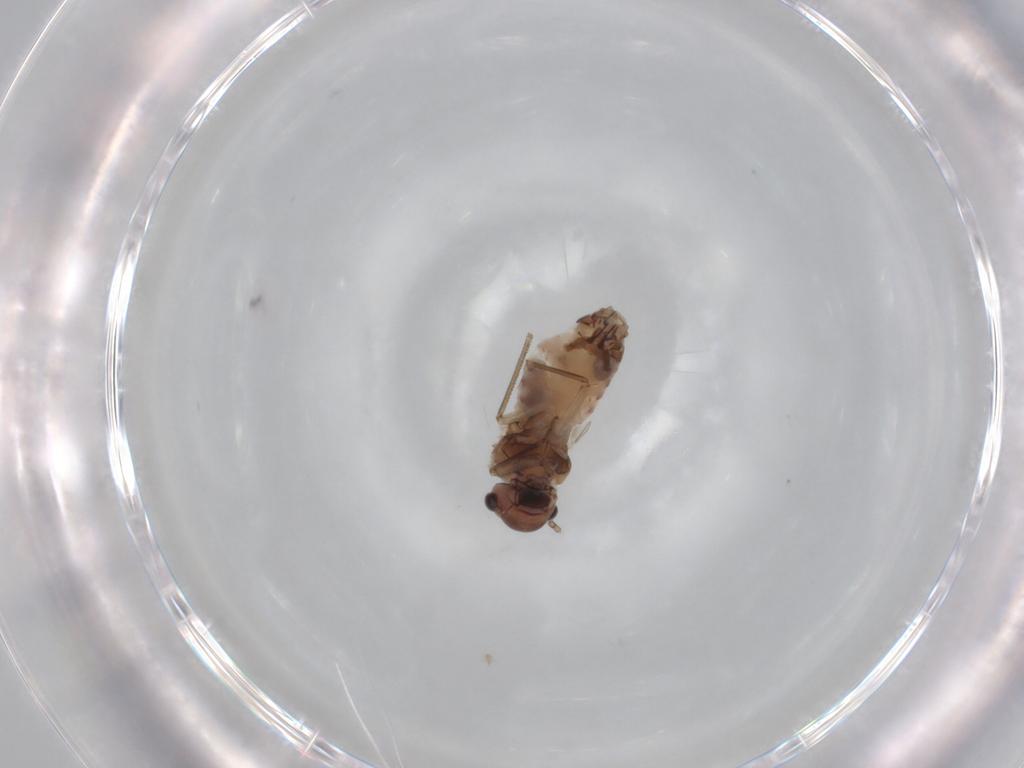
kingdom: Animalia
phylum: Arthropoda
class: Insecta
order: Psocodea
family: Peripsocidae
